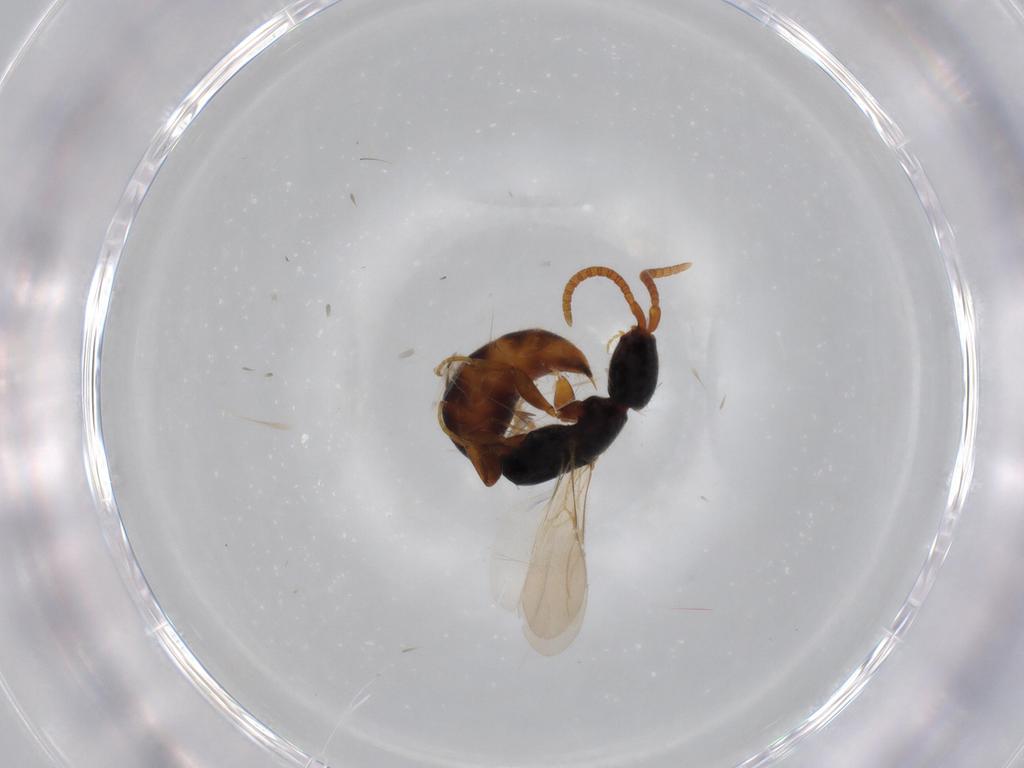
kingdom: Animalia
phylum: Arthropoda
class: Insecta
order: Hymenoptera
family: Bethylidae
